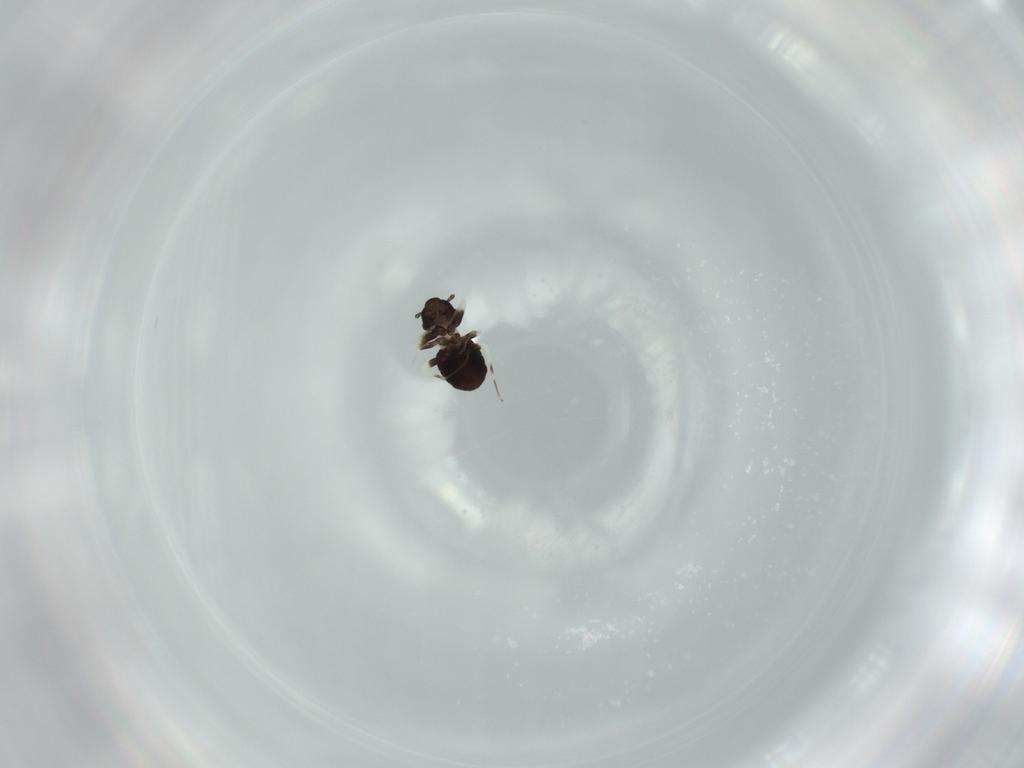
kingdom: Animalia
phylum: Arthropoda
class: Insecta
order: Psocodea
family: Lepidopsocidae
